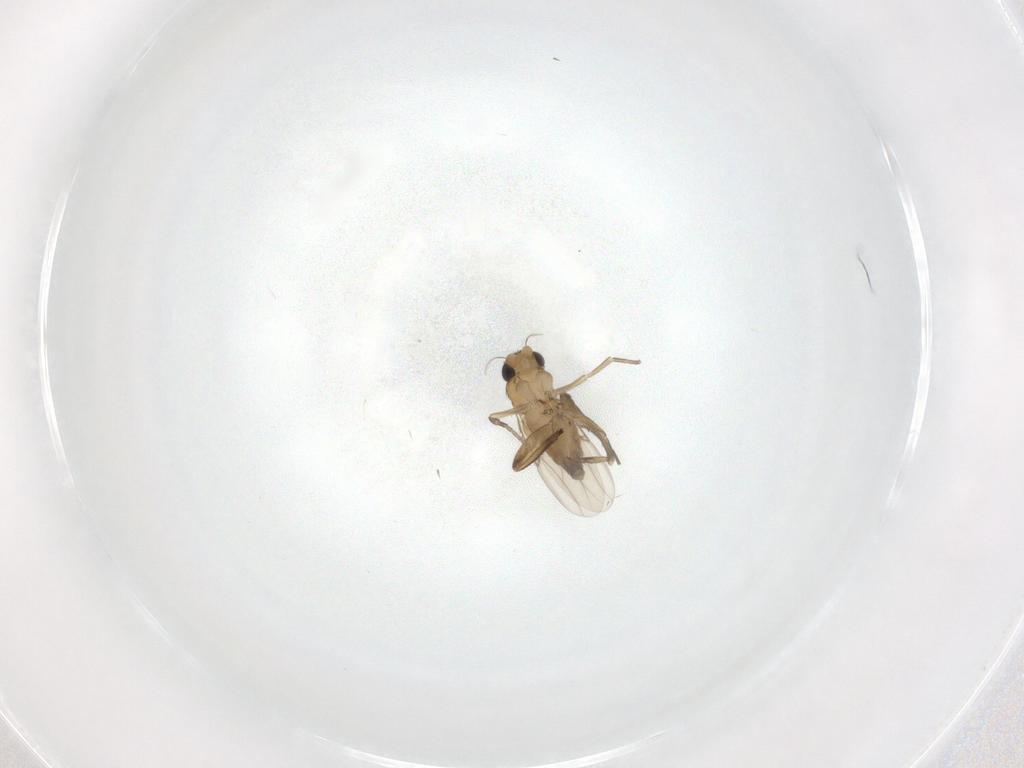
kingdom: Animalia
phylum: Arthropoda
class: Insecta
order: Diptera
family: Phoridae
